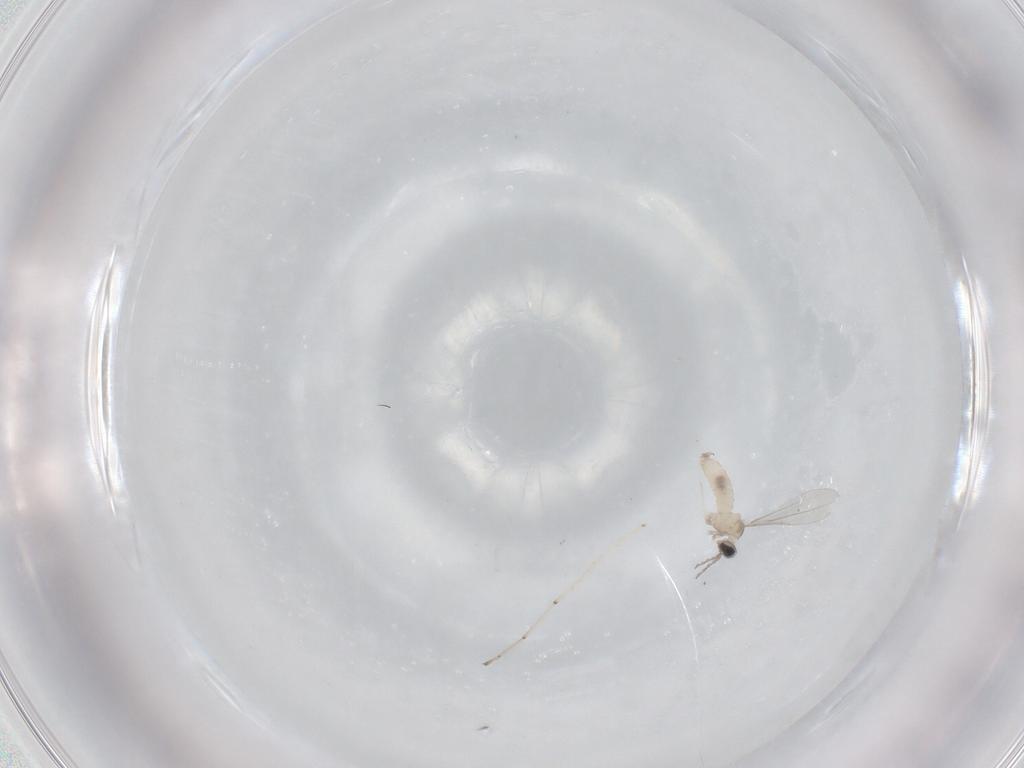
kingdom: Animalia
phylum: Arthropoda
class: Insecta
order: Diptera
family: Cecidomyiidae
